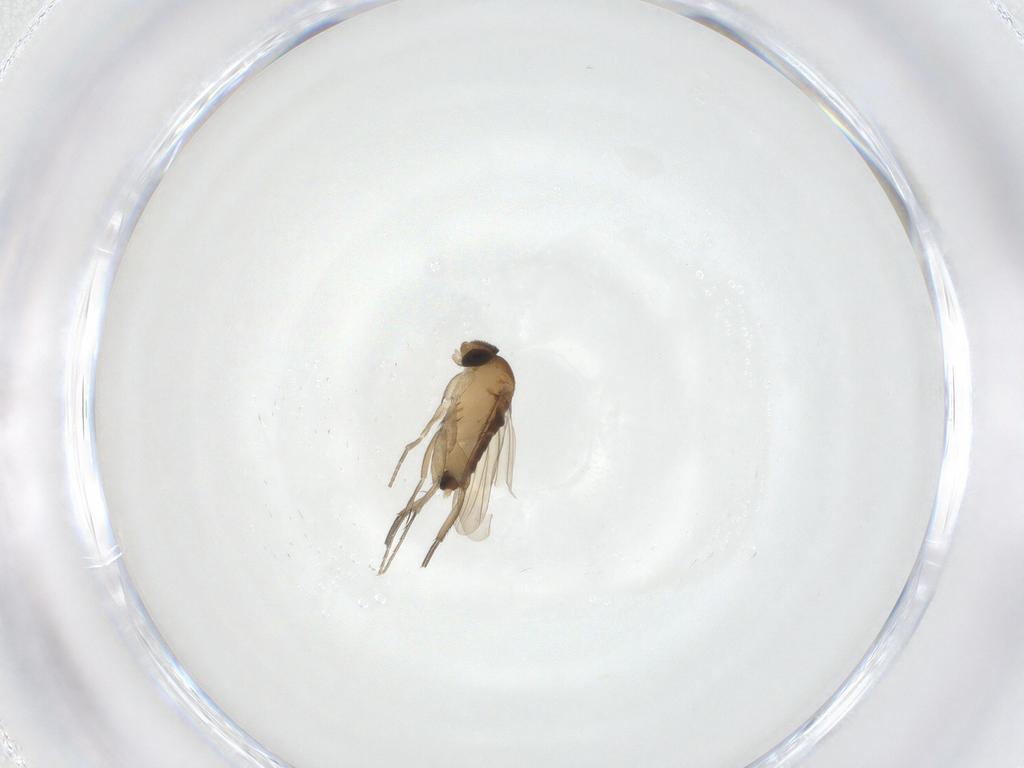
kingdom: Animalia
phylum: Arthropoda
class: Insecta
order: Diptera
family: Phoridae
